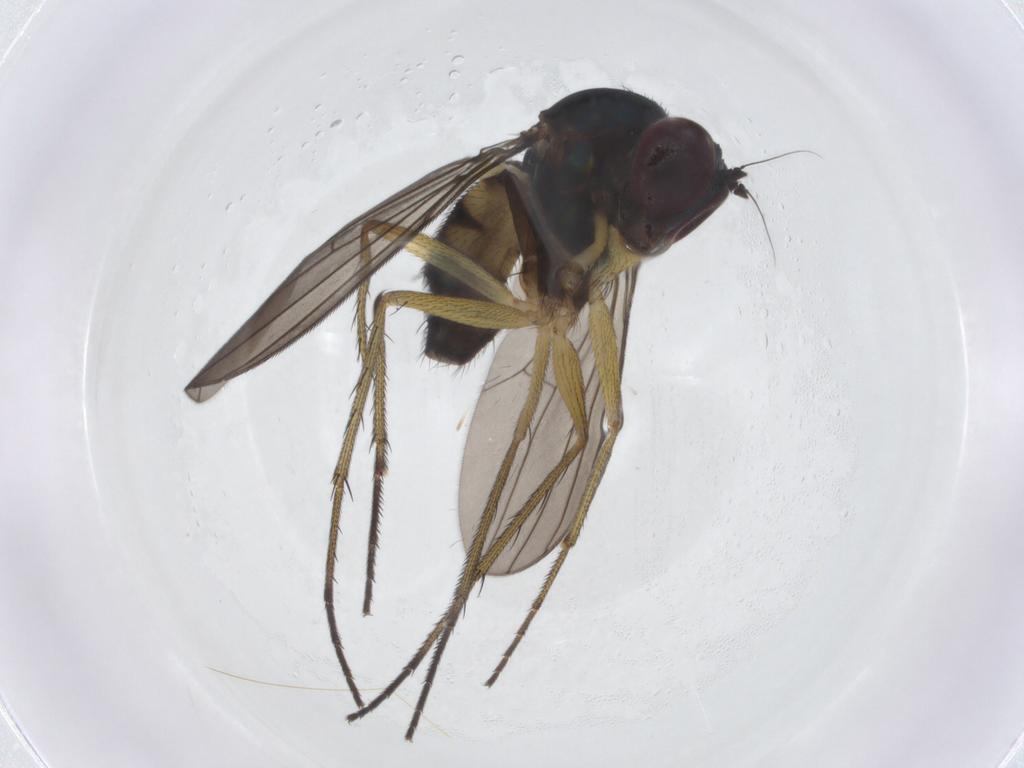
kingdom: Animalia
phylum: Arthropoda
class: Insecta
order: Diptera
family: Dolichopodidae
